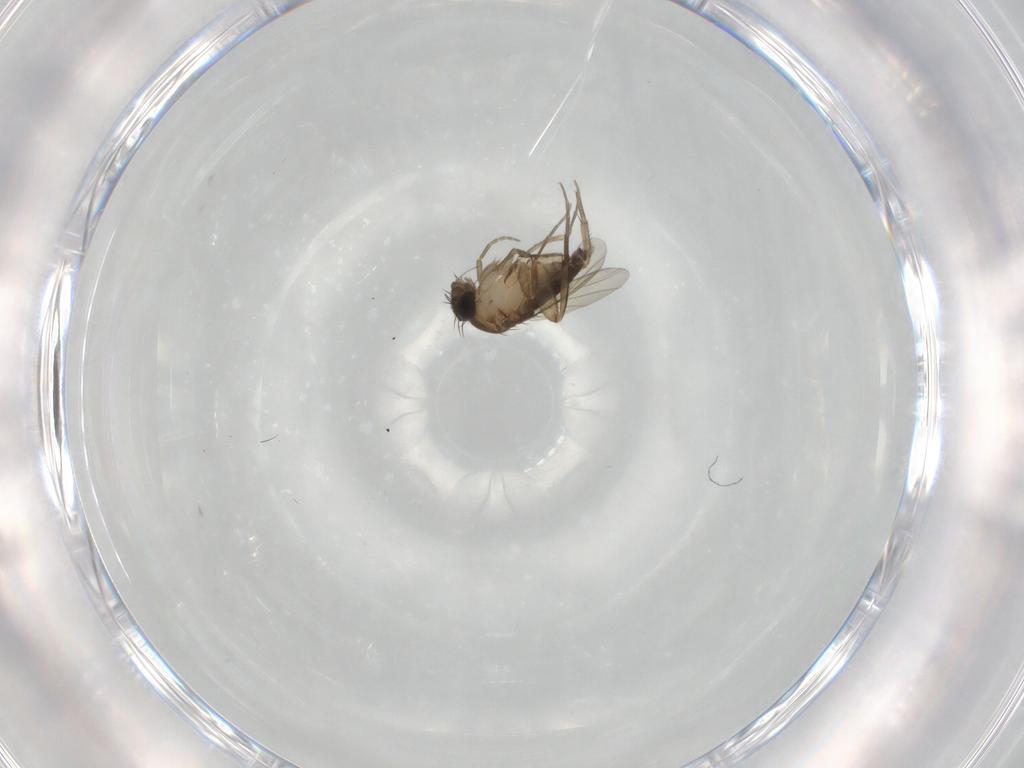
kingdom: Animalia
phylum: Arthropoda
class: Insecta
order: Diptera
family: Phoridae
